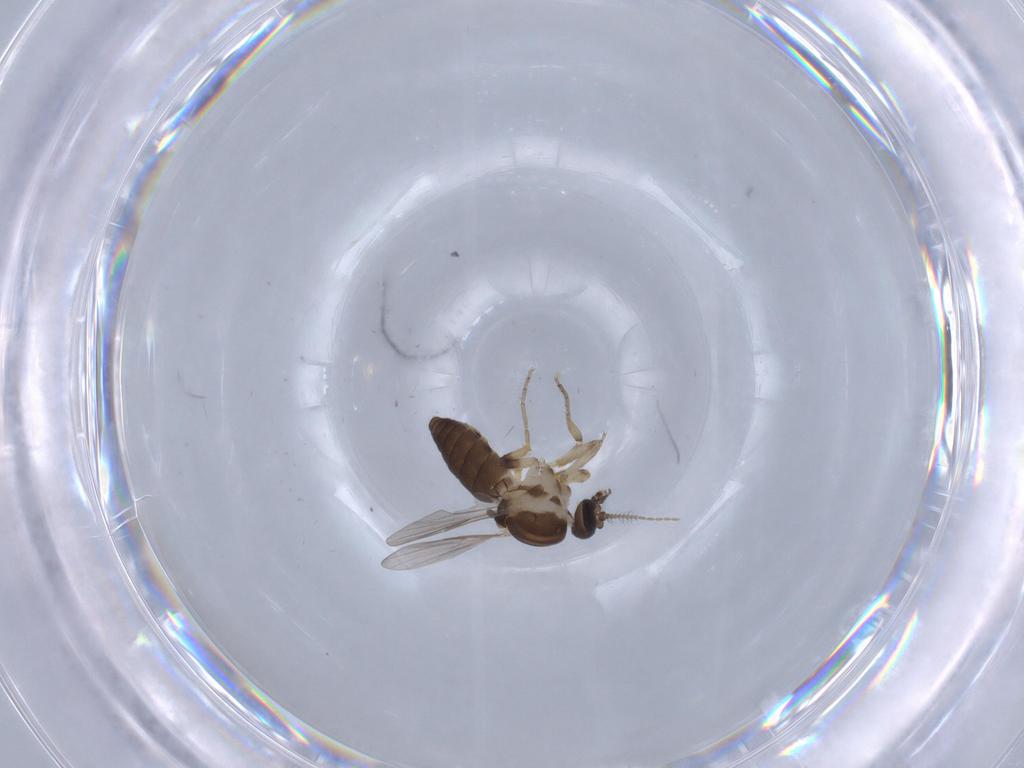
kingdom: Animalia
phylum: Arthropoda
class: Insecta
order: Diptera
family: Ceratopogonidae
